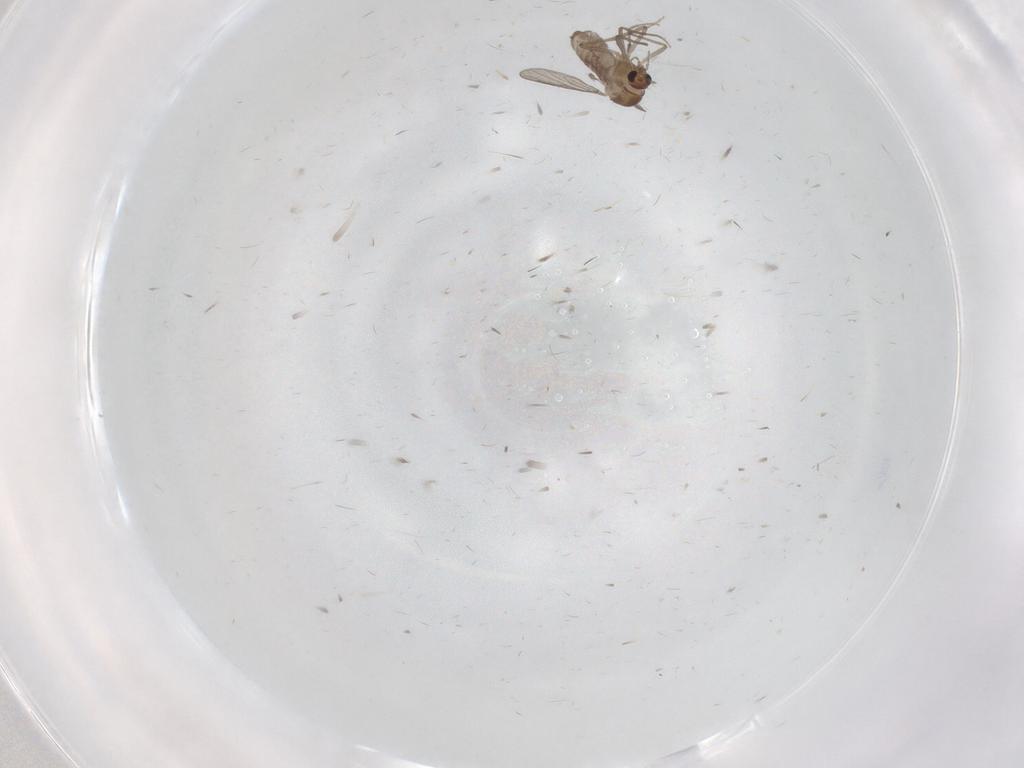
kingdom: Animalia
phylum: Arthropoda
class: Insecta
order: Diptera
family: Chironomidae
